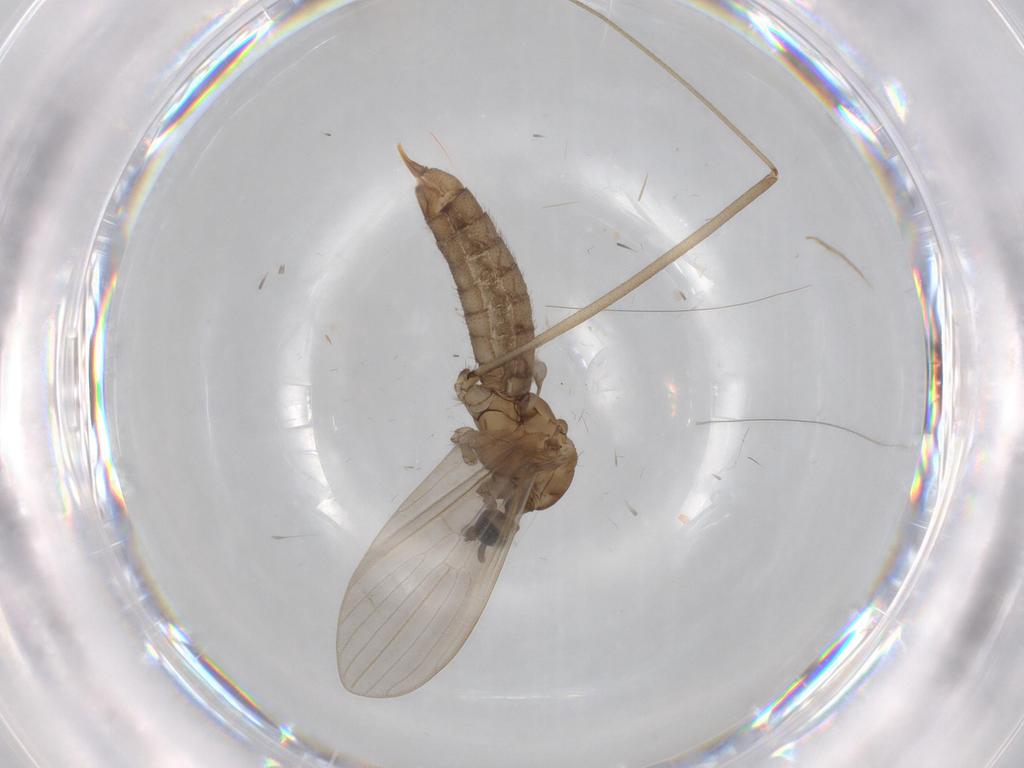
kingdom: Animalia
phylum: Arthropoda
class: Insecta
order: Diptera
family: Limoniidae
